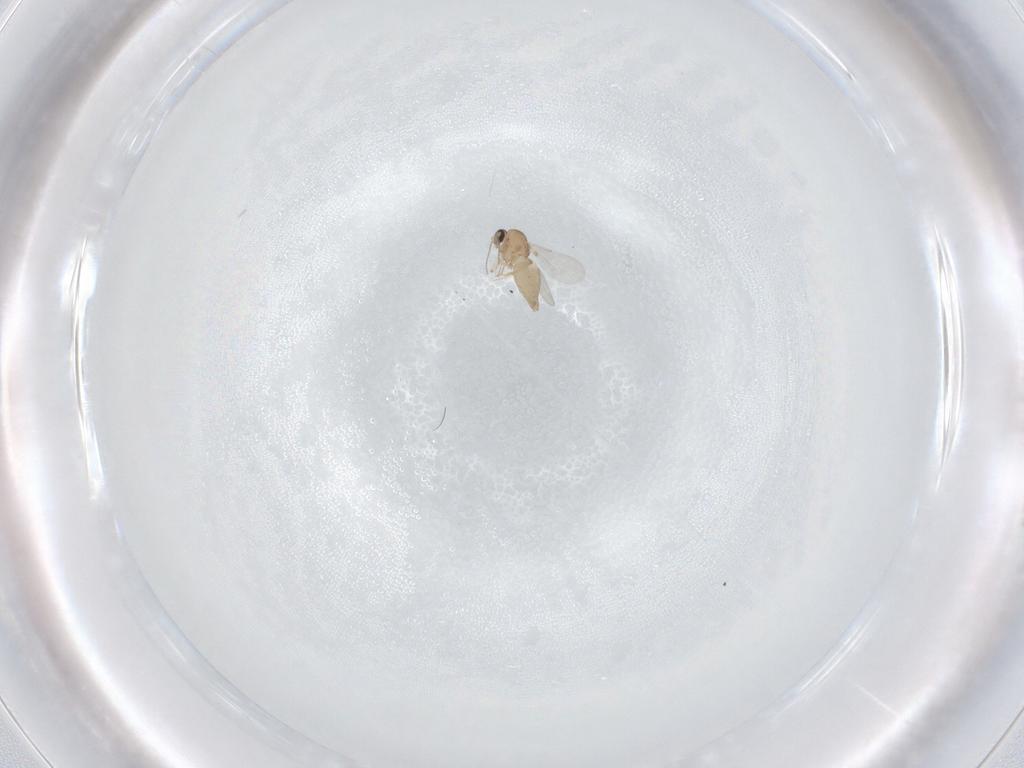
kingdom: Animalia
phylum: Arthropoda
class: Insecta
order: Diptera
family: Ceratopogonidae
